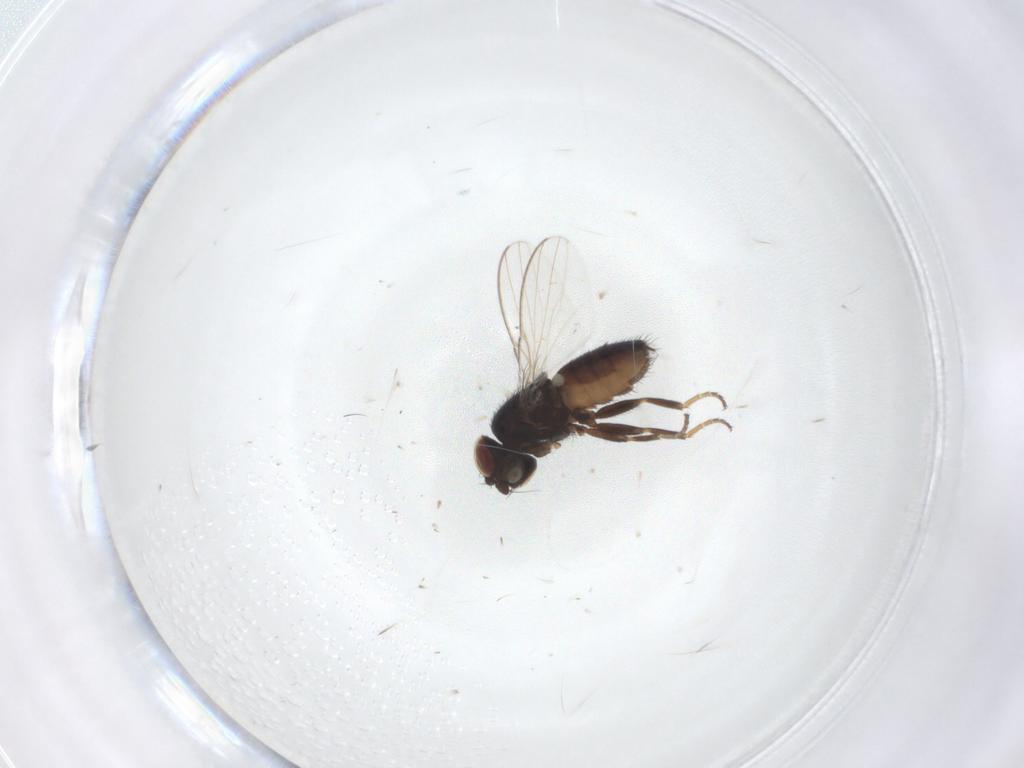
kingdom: Animalia
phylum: Arthropoda
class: Insecta
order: Diptera
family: Milichiidae
